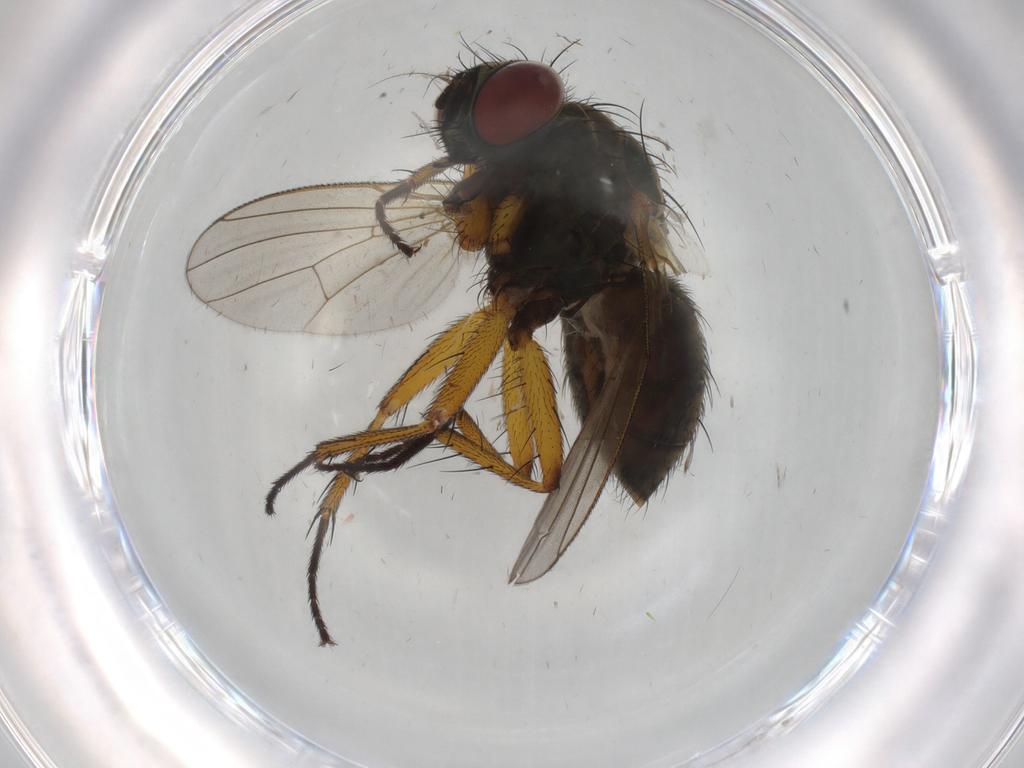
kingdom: Animalia
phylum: Arthropoda
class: Insecta
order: Diptera
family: Muscidae
